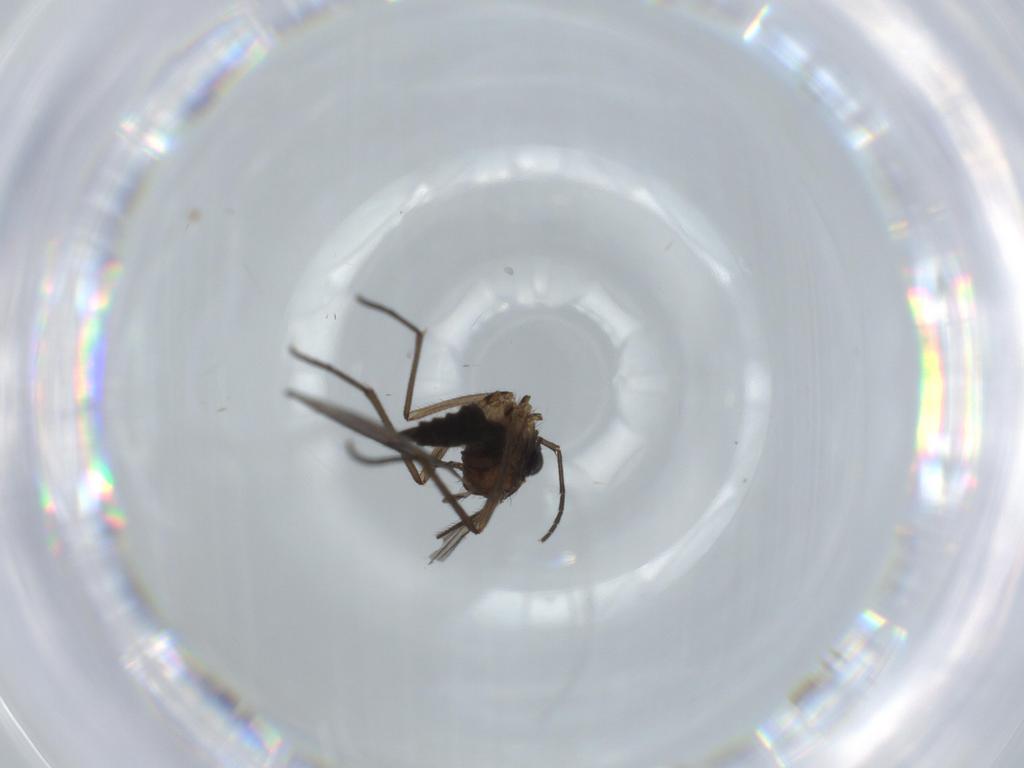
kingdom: Animalia
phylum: Arthropoda
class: Insecta
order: Diptera
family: Sciaridae
